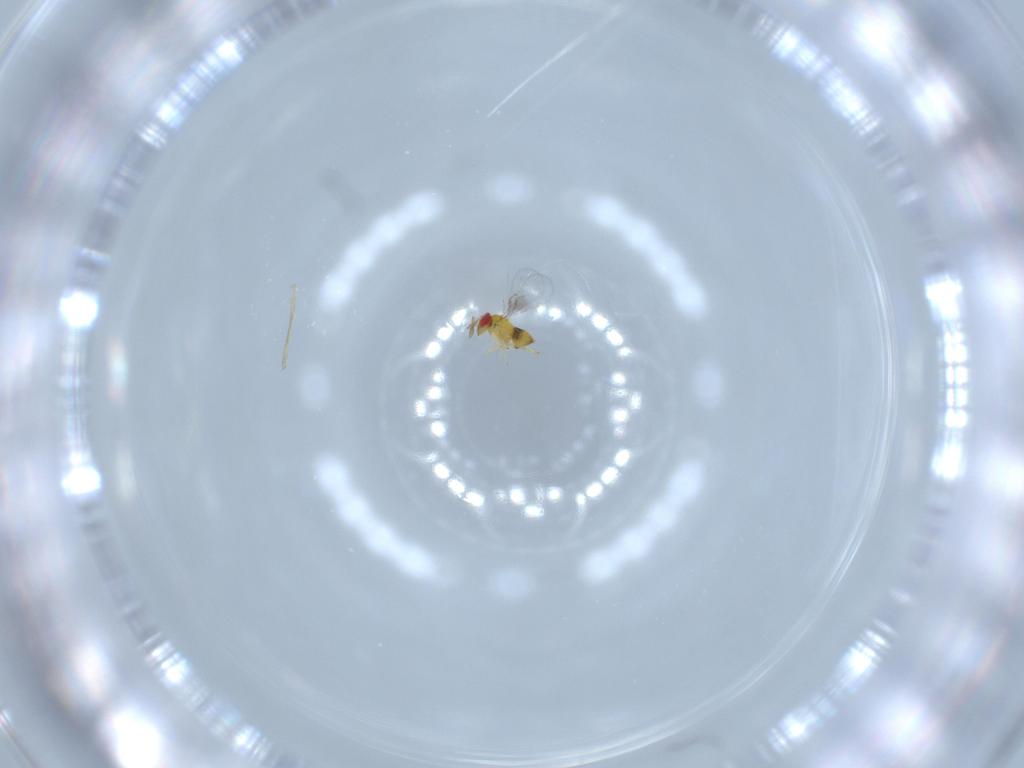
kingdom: Animalia
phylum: Arthropoda
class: Insecta
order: Hymenoptera
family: Trichogrammatidae
